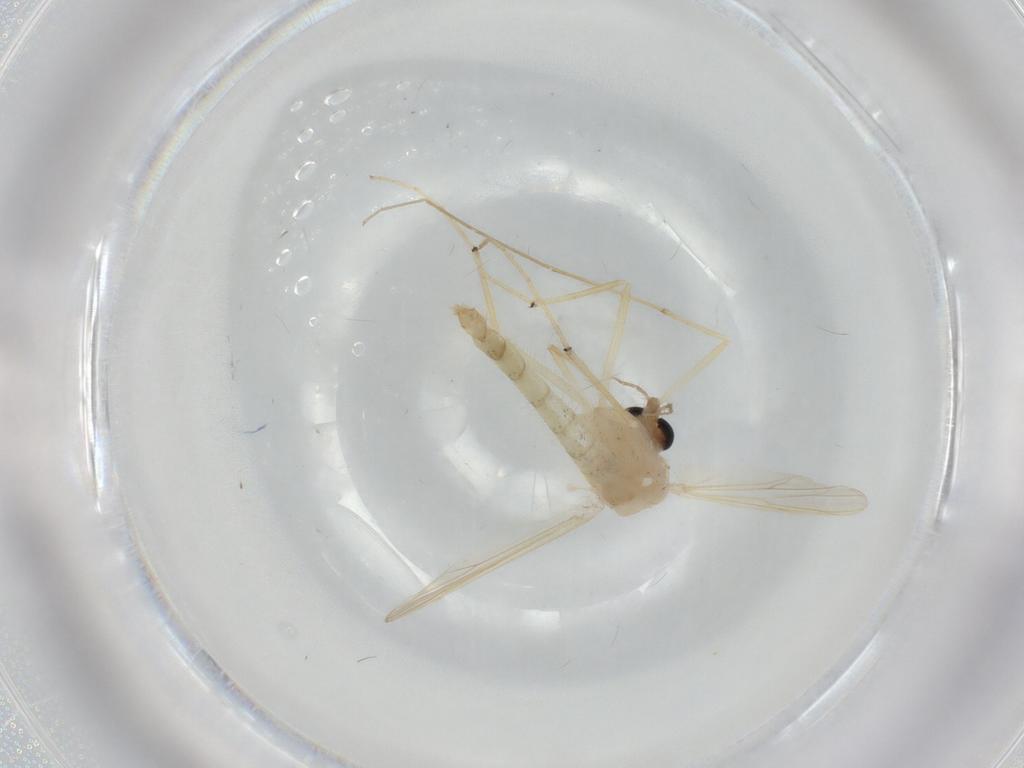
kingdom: Animalia
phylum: Arthropoda
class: Insecta
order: Diptera
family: Chironomidae
